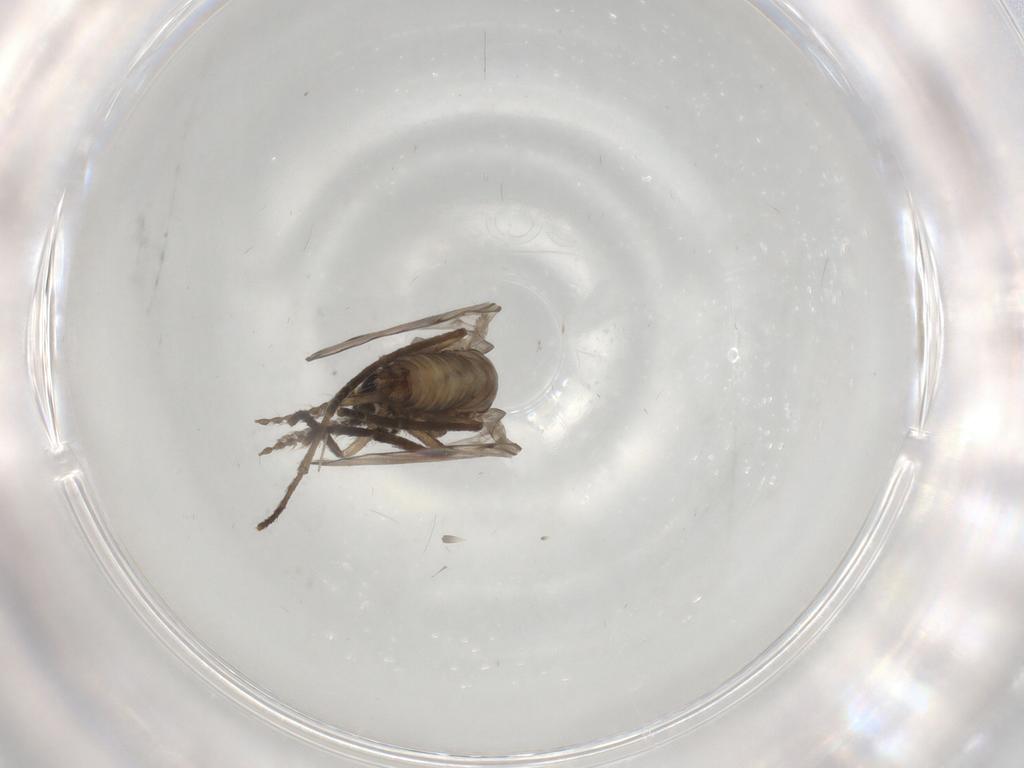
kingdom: Animalia
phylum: Arthropoda
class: Insecta
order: Diptera
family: Psychodidae
